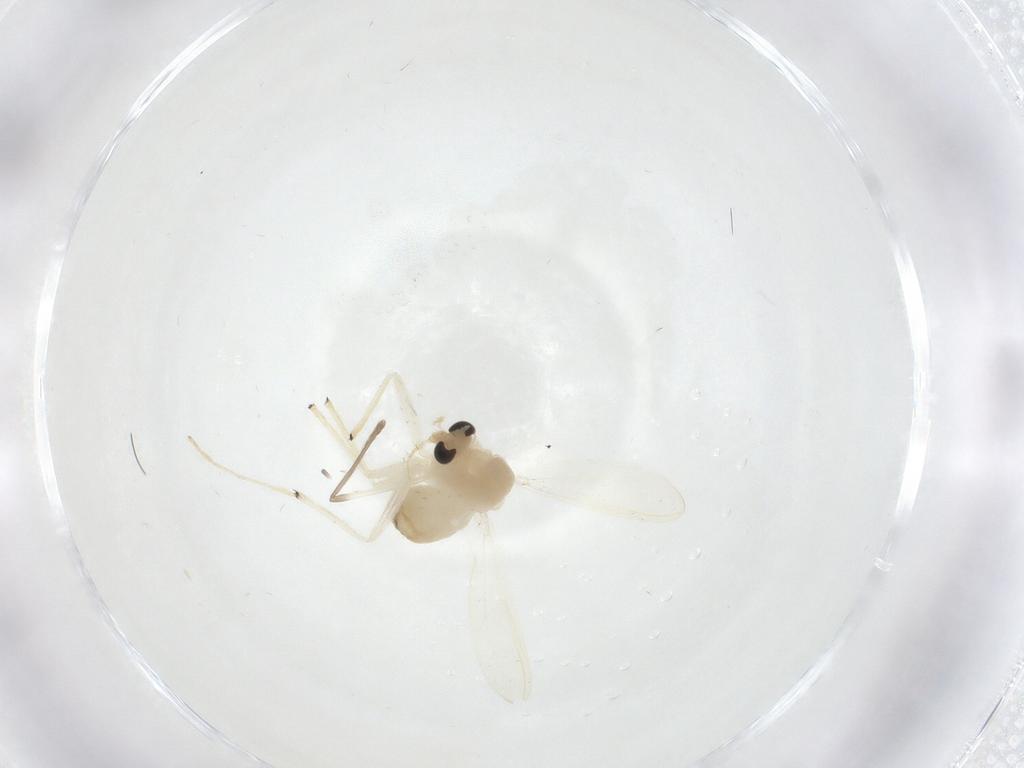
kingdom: Animalia
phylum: Arthropoda
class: Insecta
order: Diptera
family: Chironomidae
